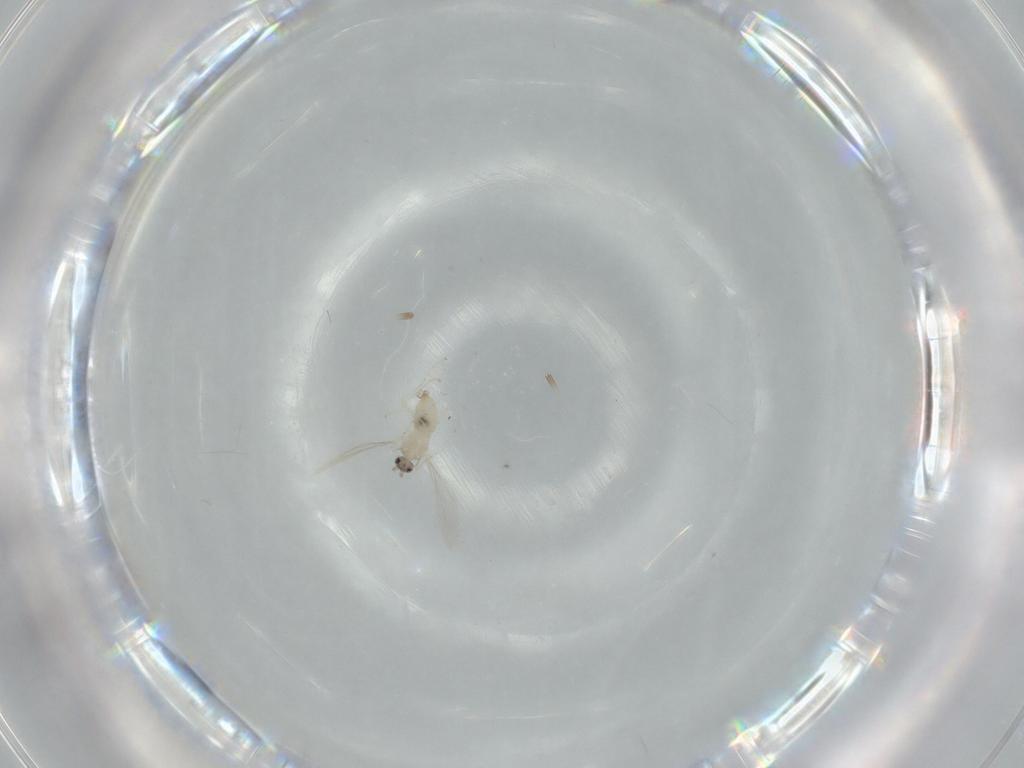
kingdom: Animalia
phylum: Arthropoda
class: Insecta
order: Diptera
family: Cecidomyiidae
